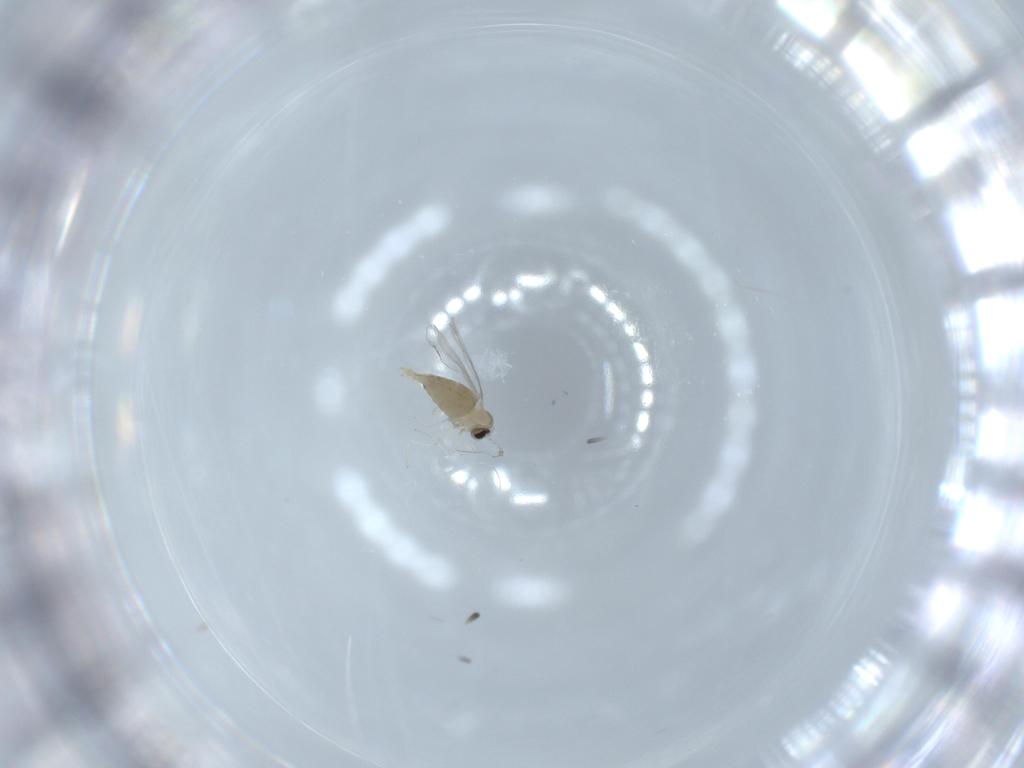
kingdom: Animalia
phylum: Arthropoda
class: Insecta
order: Diptera
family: Cecidomyiidae
